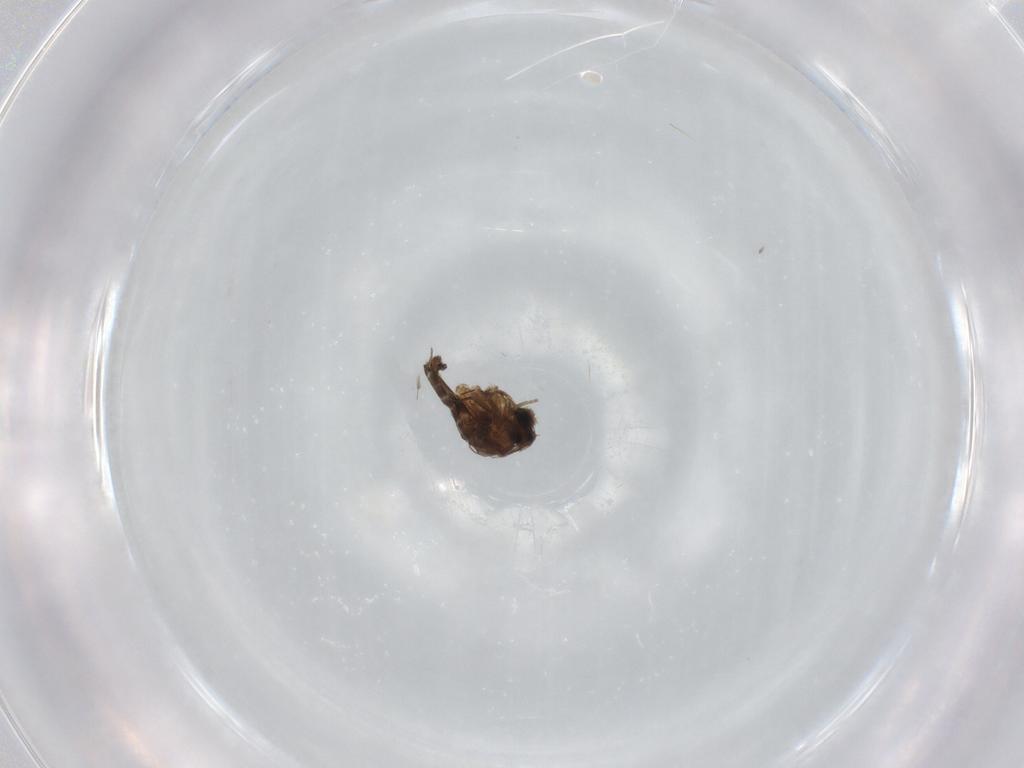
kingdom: Animalia
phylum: Arthropoda
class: Insecta
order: Diptera
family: Phoridae
